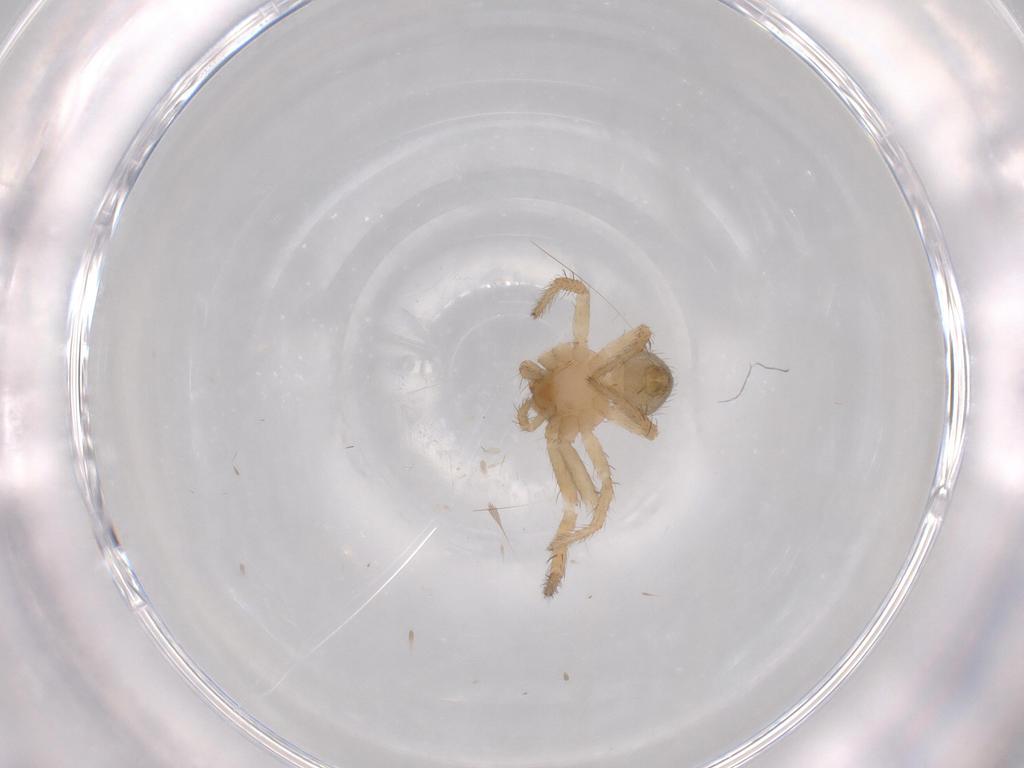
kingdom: Animalia
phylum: Arthropoda
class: Arachnida
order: Araneae
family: Thomisidae
